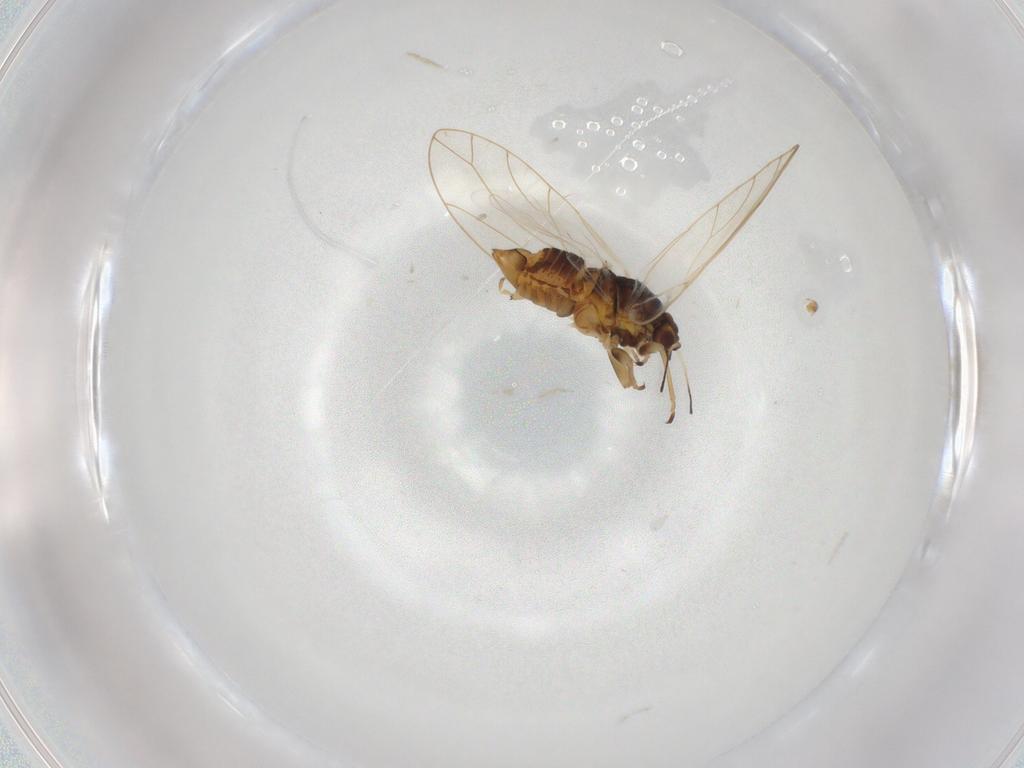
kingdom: Animalia
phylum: Arthropoda
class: Insecta
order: Hemiptera
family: Triozidae
